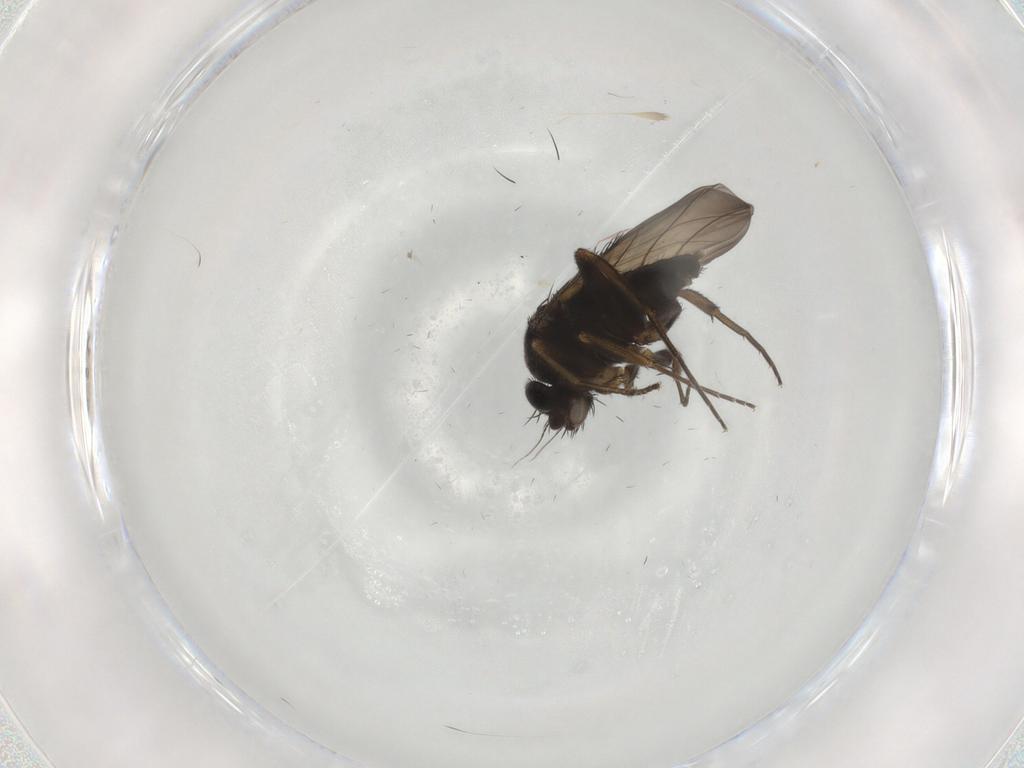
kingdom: Animalia
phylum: Arthropoda
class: Insecta
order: Diptera
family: Phoridae
